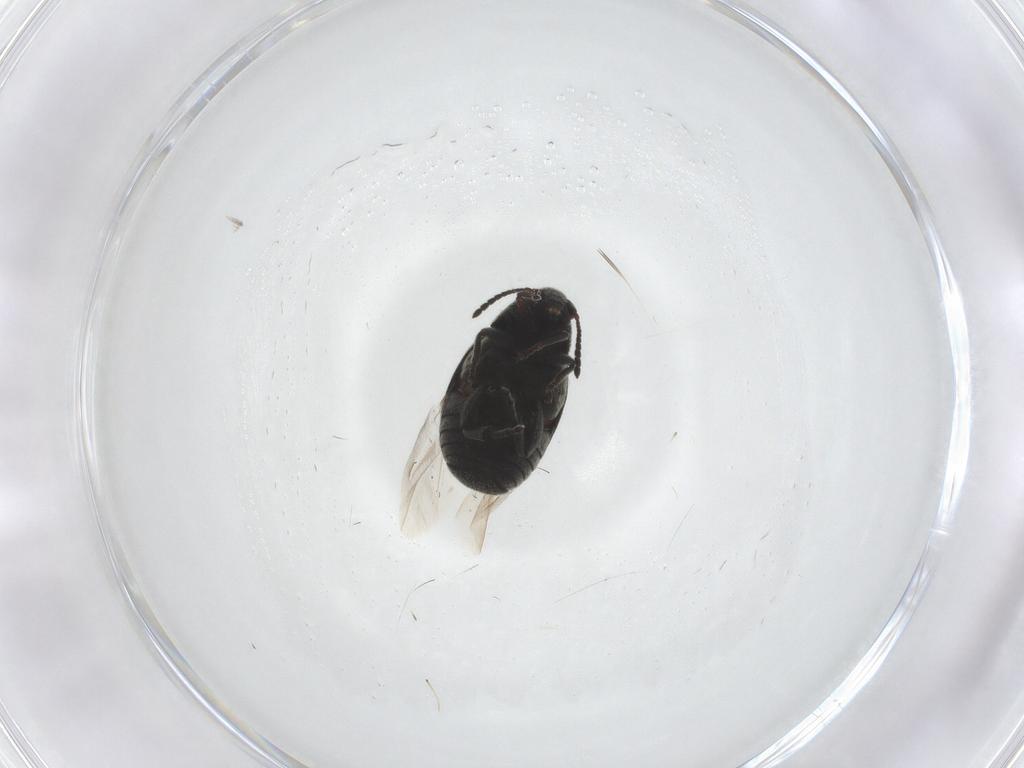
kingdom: Animalia
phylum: Arthropoda
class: Insecta
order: Coleoptera
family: Chrysomelidae
